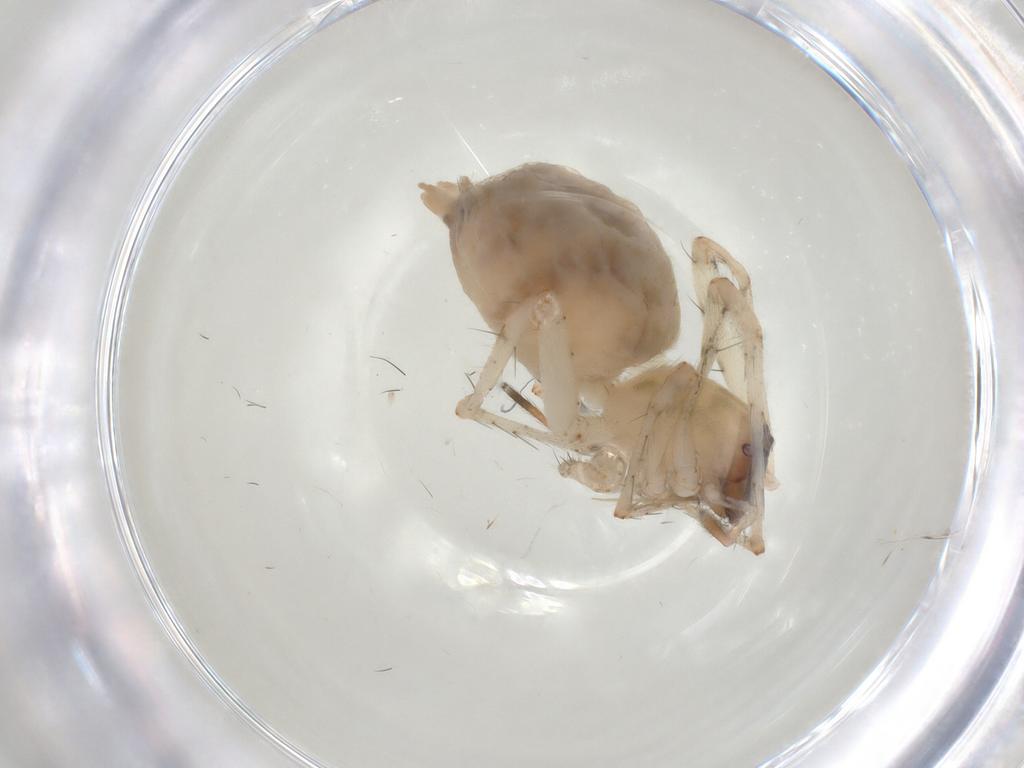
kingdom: Animalia
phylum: Arthropoda
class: Arachnida
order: Araneae
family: Anyphaenidae
